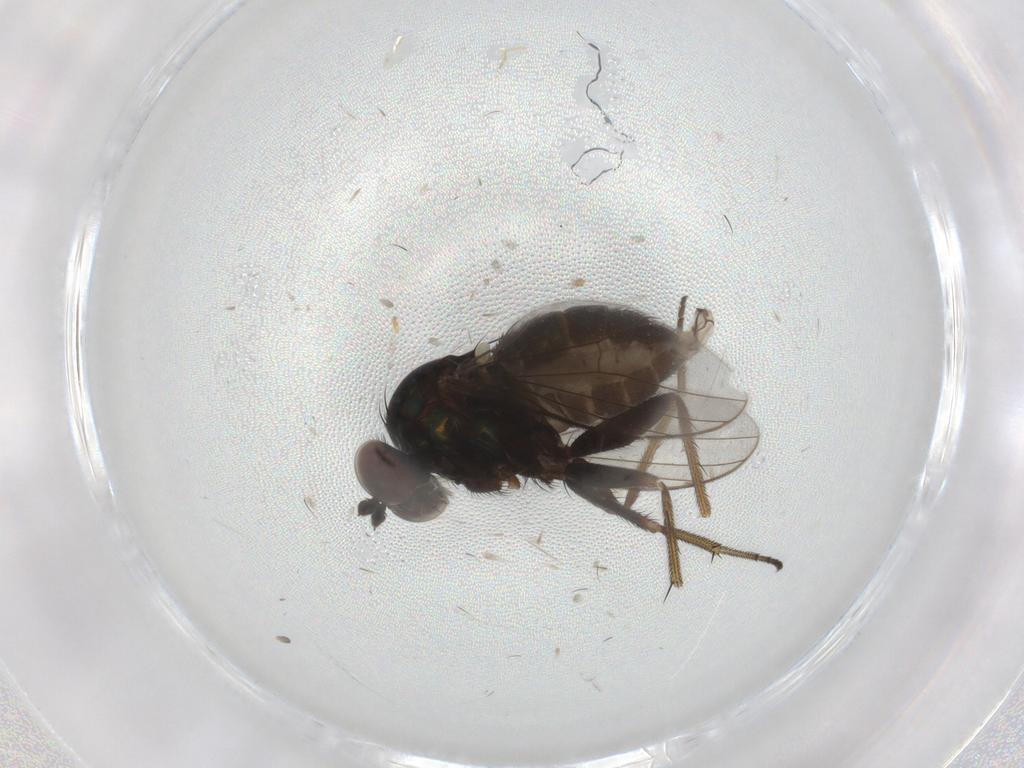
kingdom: Animalia
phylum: Arthropoda
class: Insecta
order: Diptera
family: Dolichopodidae
